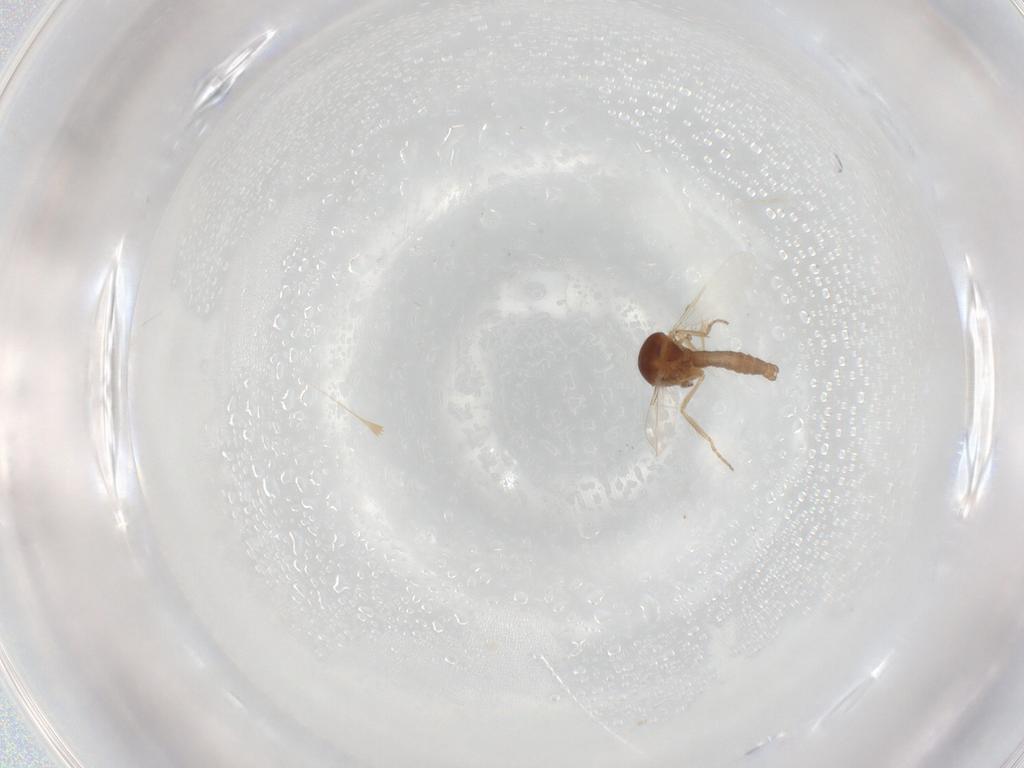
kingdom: Animalia
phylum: Arthropoda
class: Insecta
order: Diptera
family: Chironomidae
